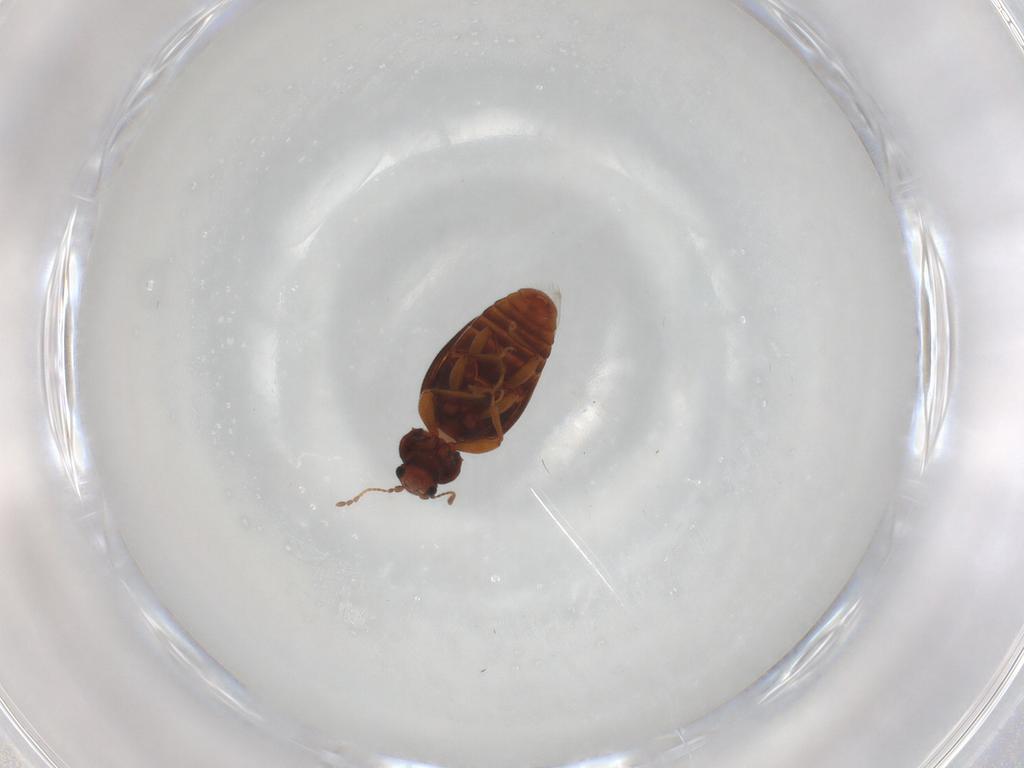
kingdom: Animalia
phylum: Arthropoda
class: Insecta
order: Coleoptera
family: Latridiidae
